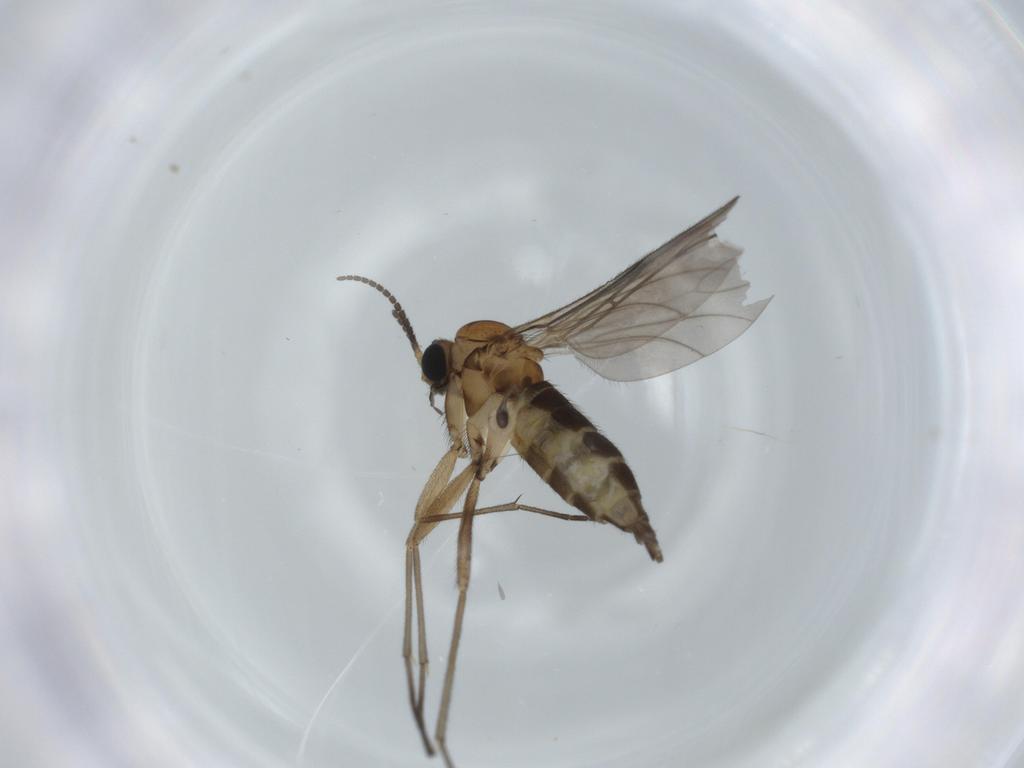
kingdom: Animalia
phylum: Arthropoda
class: Insecta
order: Diptera
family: Sciaridae
